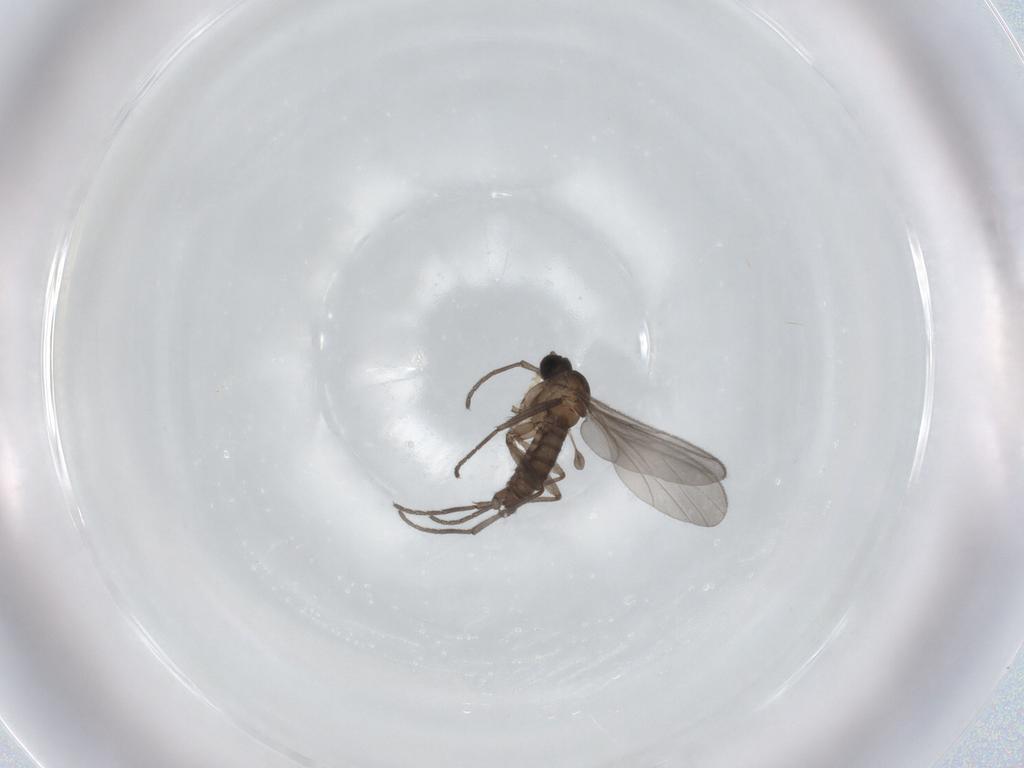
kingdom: Animalia
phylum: Arthropoda
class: Insecta
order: Diptera
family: Sciaridae
